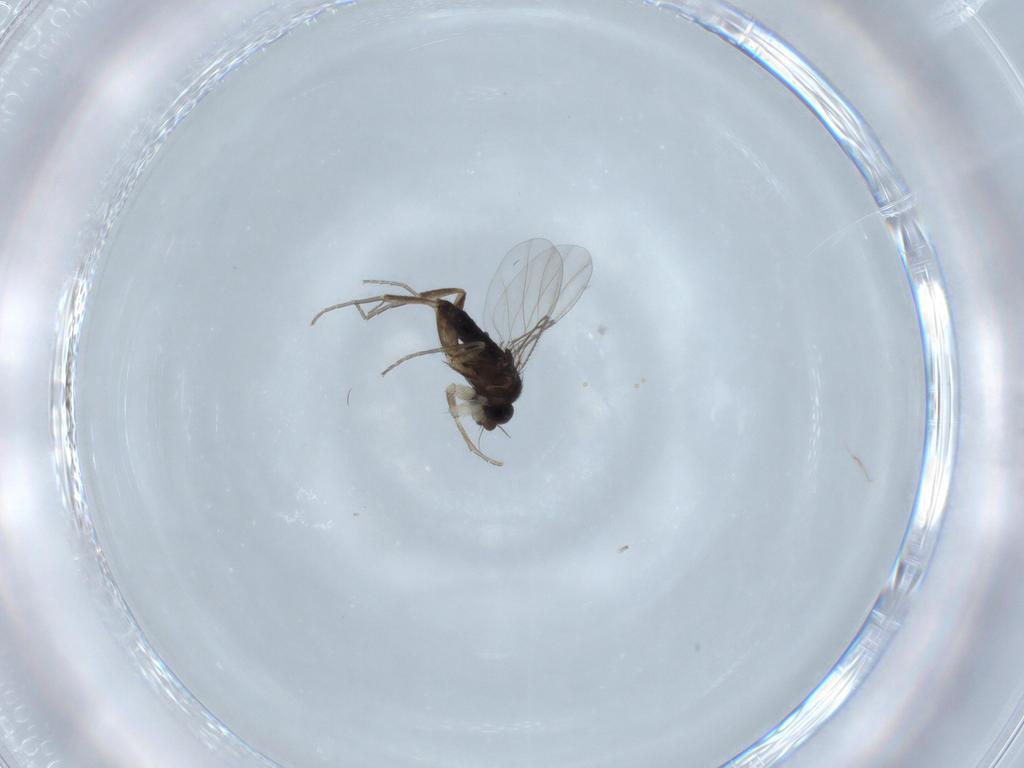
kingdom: Animalia
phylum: Arthropoda
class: Insecta
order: Diptera
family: Phoridae
